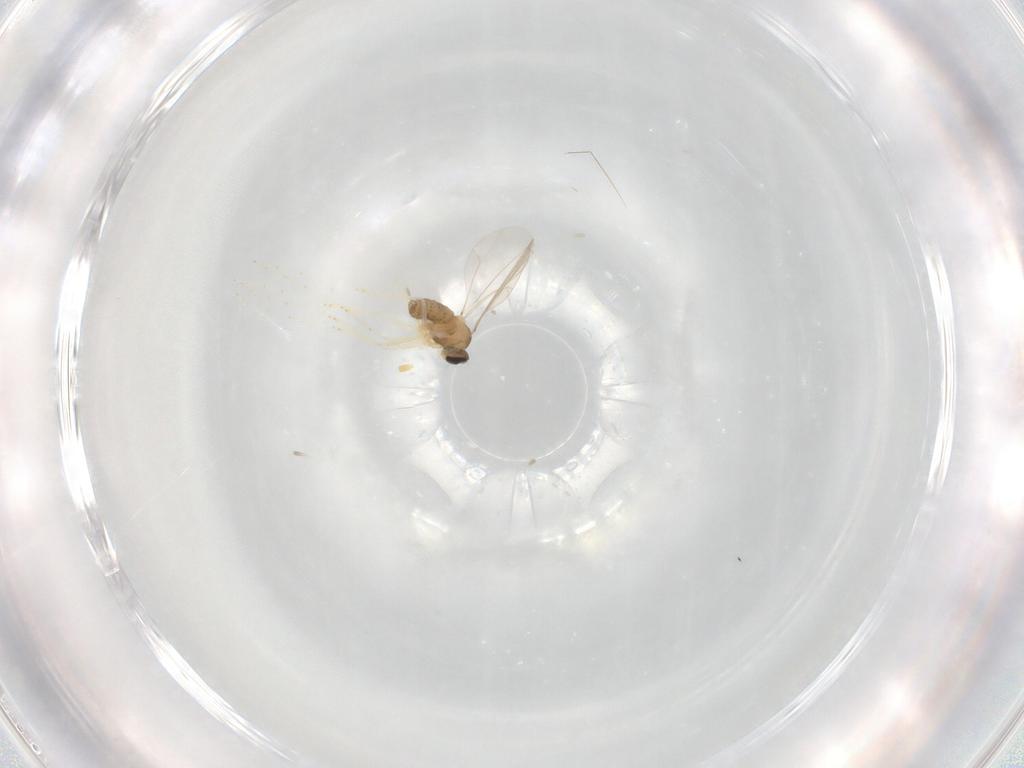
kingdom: Animalia
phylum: Arthropoda
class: Insecta
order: Diptera
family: Cecidomyiidae
